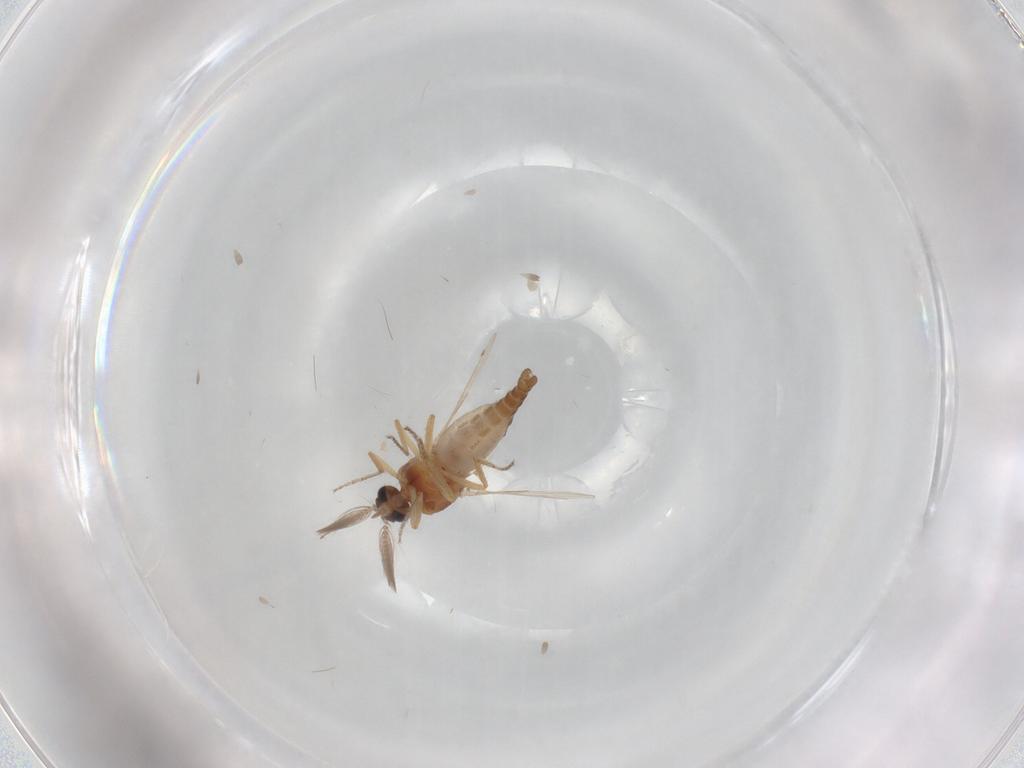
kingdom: Animalia
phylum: Arthropoda
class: Insecta
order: Diptera
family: Ceratopogonidae
